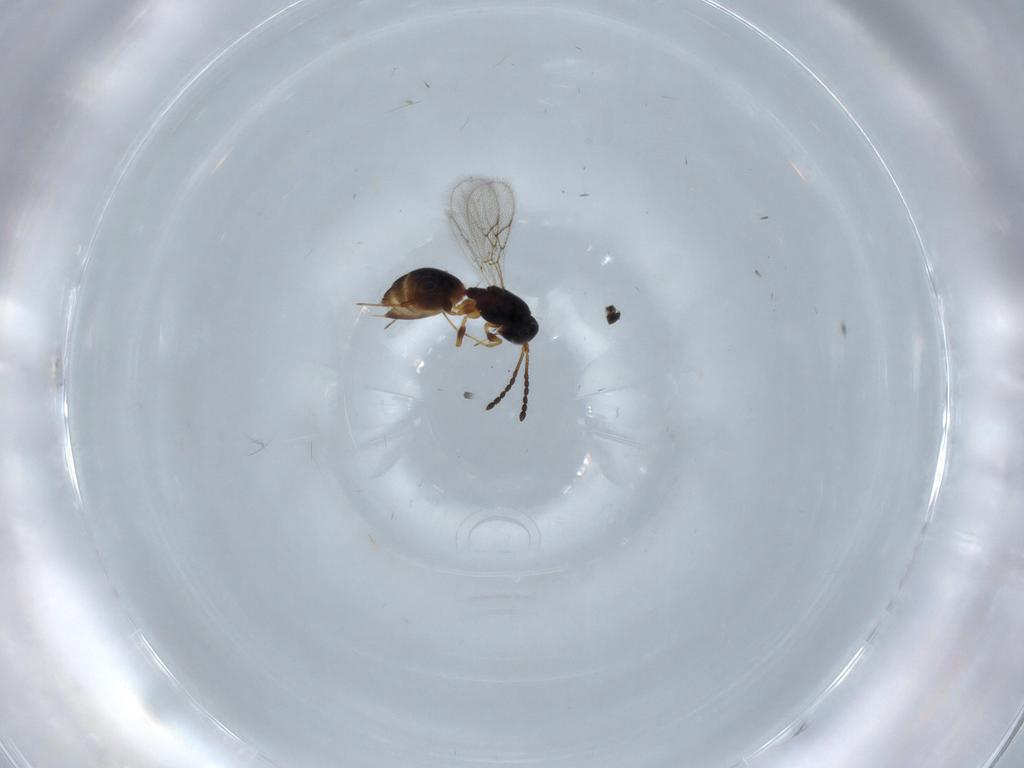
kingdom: Animalia
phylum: Arthropoda
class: Insecta
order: Hymenoptera
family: Figitidae
